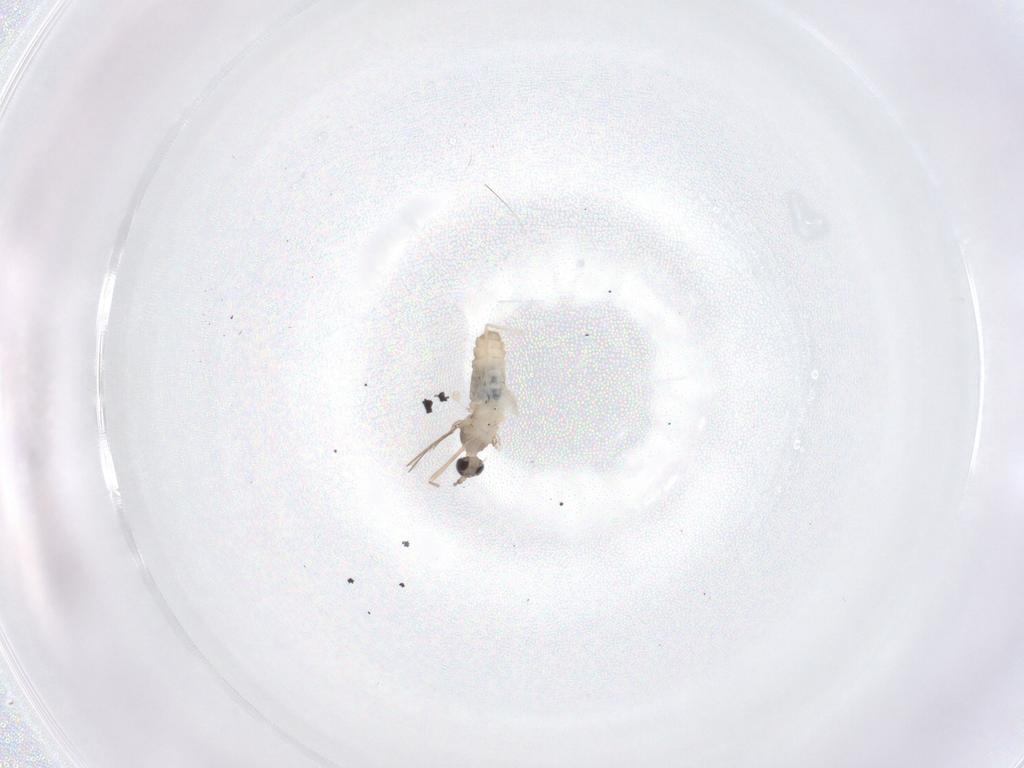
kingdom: Animalia
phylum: Arthropoda
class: Insecta
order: Diptera
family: Cecidomyiidae
